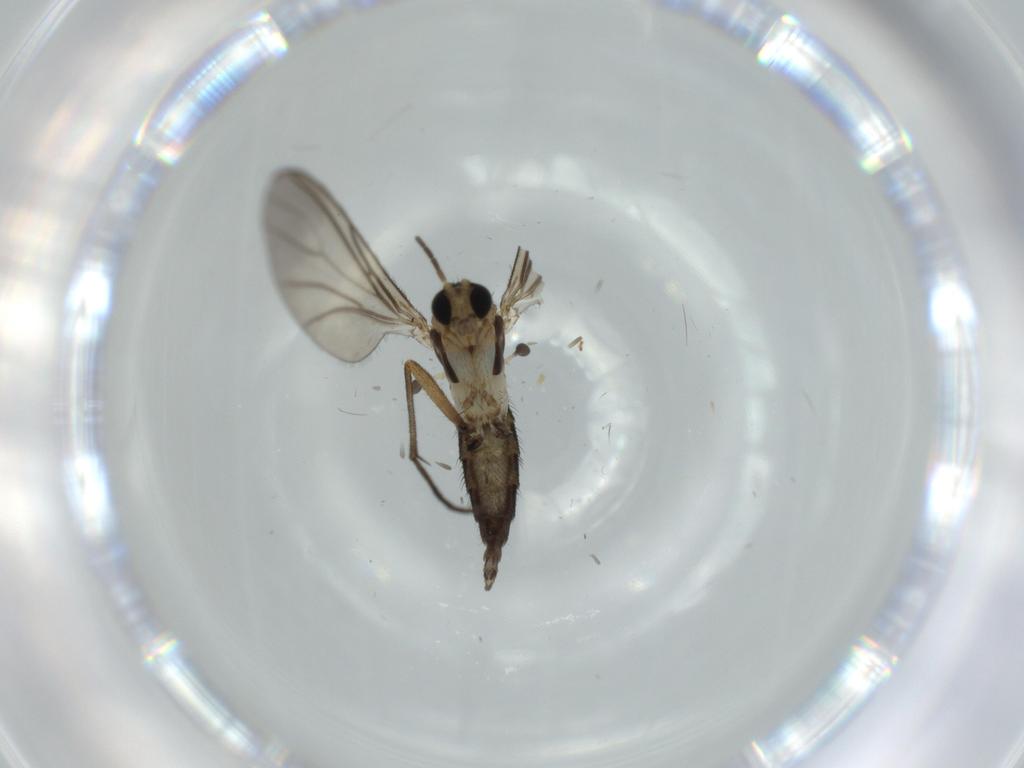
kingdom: Animalia
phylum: Arthropoda
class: Insecta
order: Diptera
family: Sciaridae
